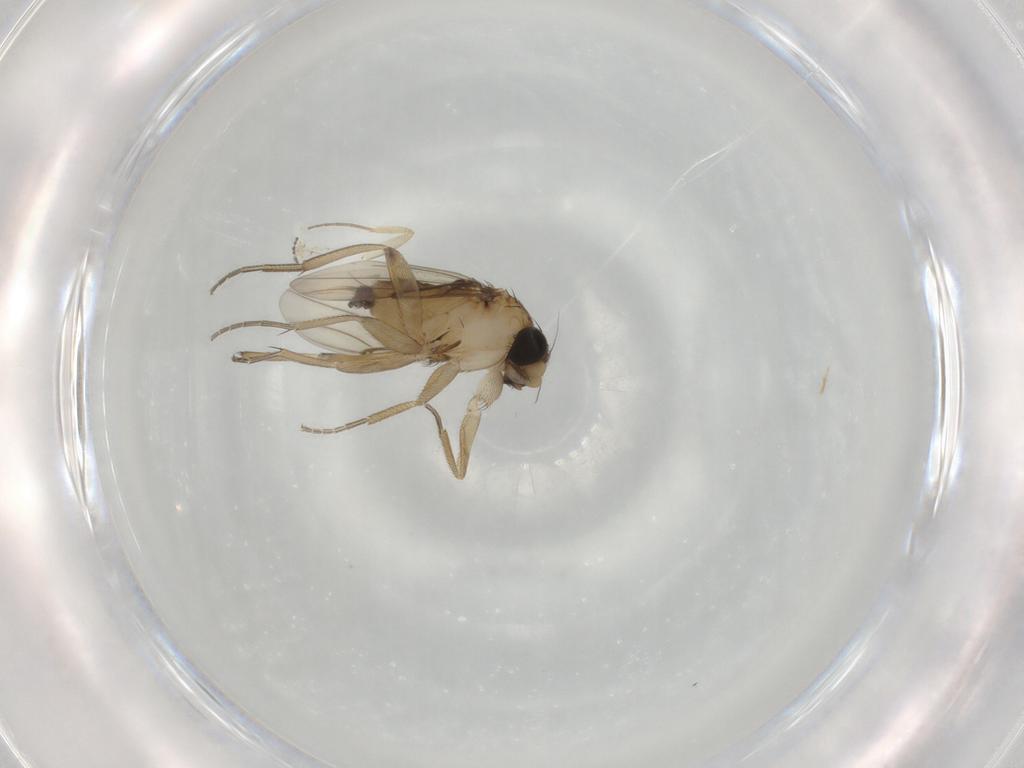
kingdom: Animalia
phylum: Arthropoda
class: Insecta
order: Diptera
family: Phoridae
